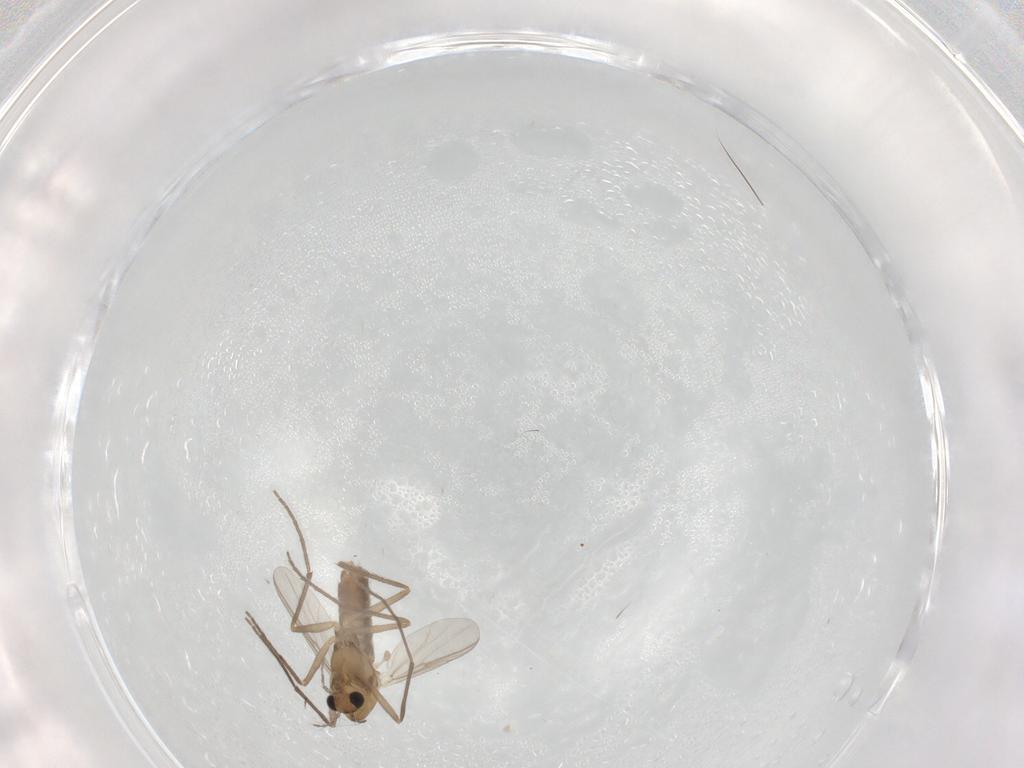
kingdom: Animalia
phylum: Arthropoda
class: Insecta
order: Diptera
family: Chironomidae
